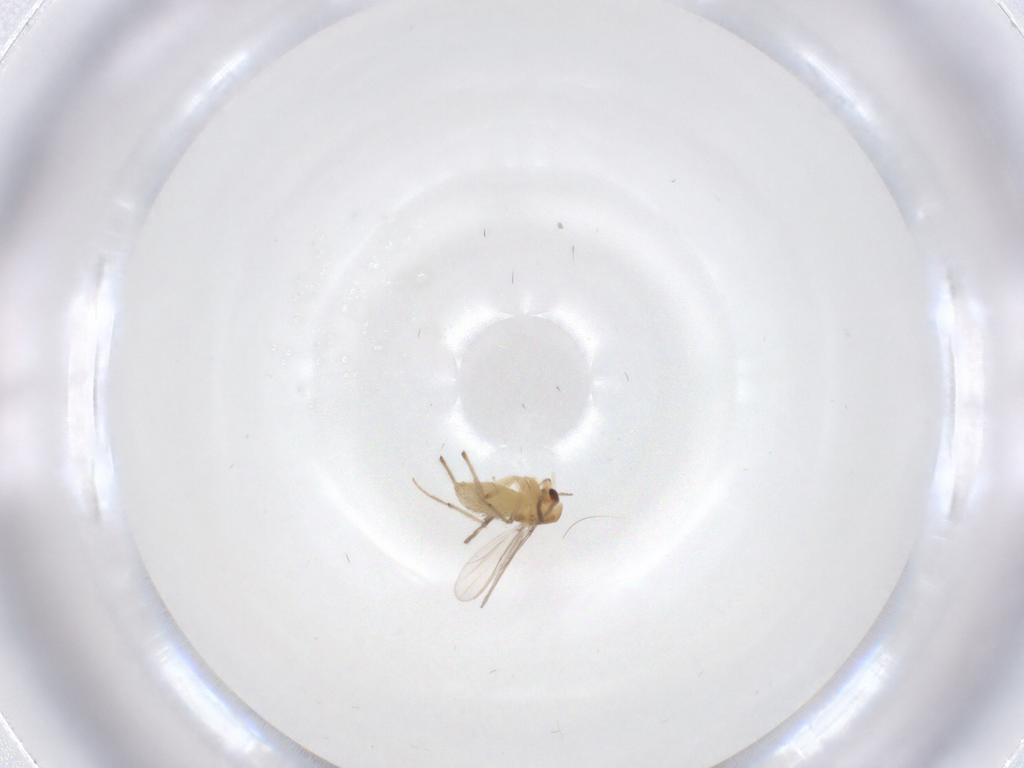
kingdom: Animalia
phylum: Arthropoda
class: Insecta
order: Diptera
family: Chironomidae
